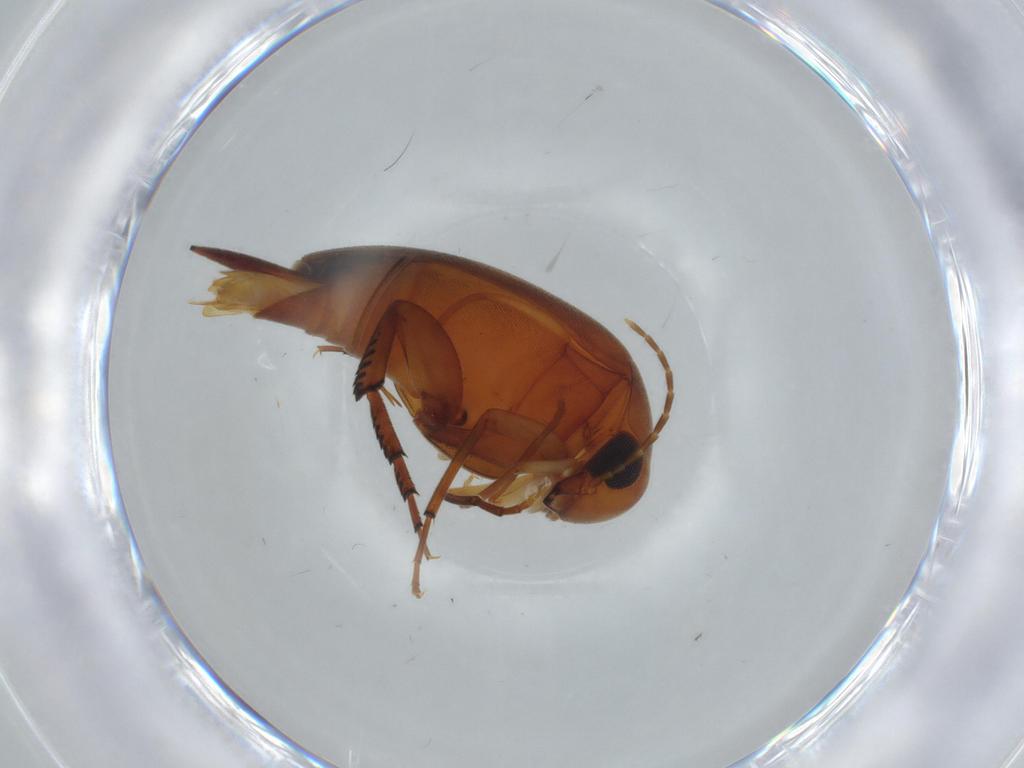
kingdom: Animalia
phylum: Arthropoda
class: Insecta
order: Coleoptera
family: Mordellidae
